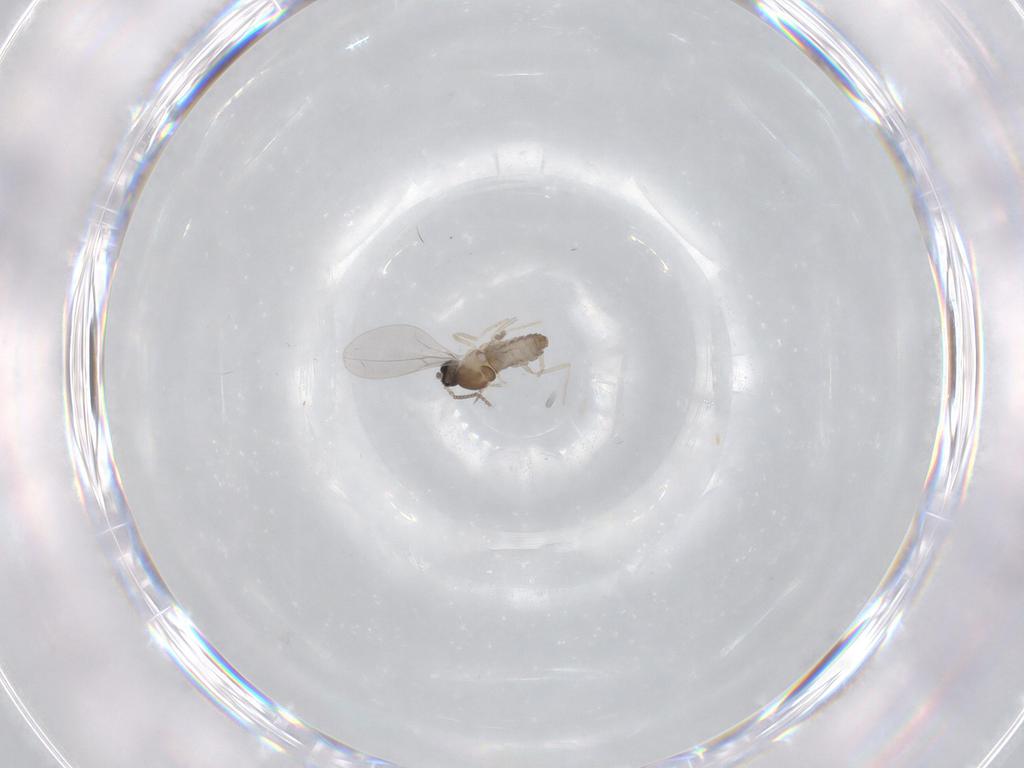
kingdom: Animalia
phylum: Arthropoda
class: Insecta
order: Diptera
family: Cecidomyiidae
